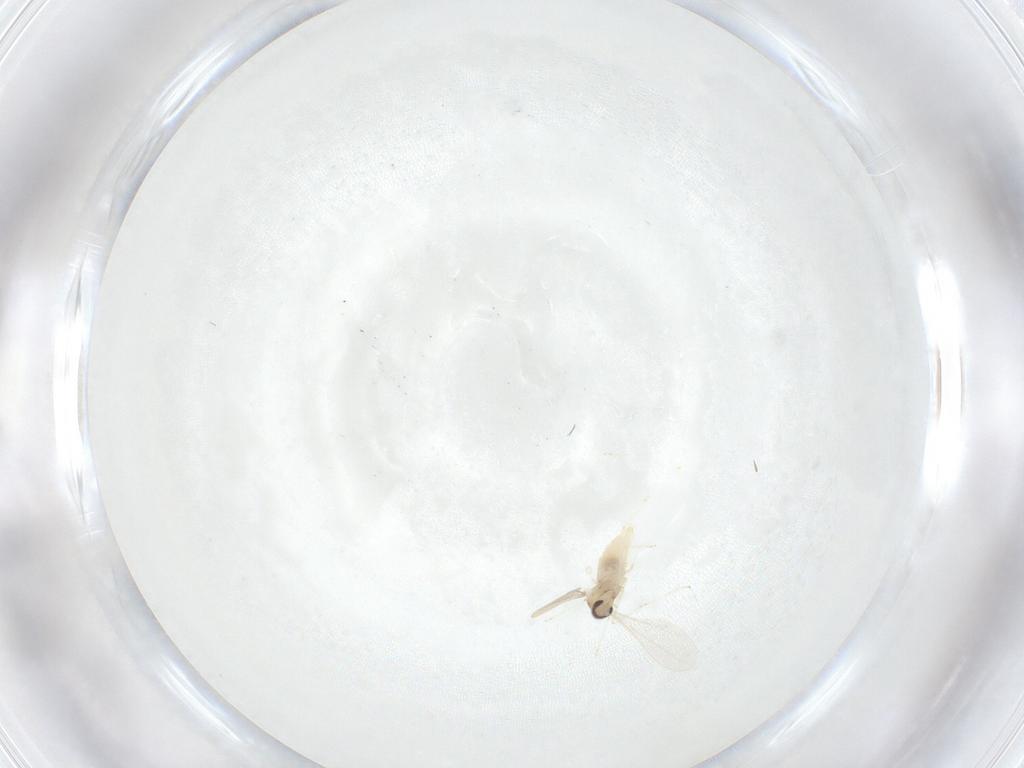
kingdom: Animalia
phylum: Arthropoda
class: Insecta
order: Diptera
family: Cecidomyiidae
